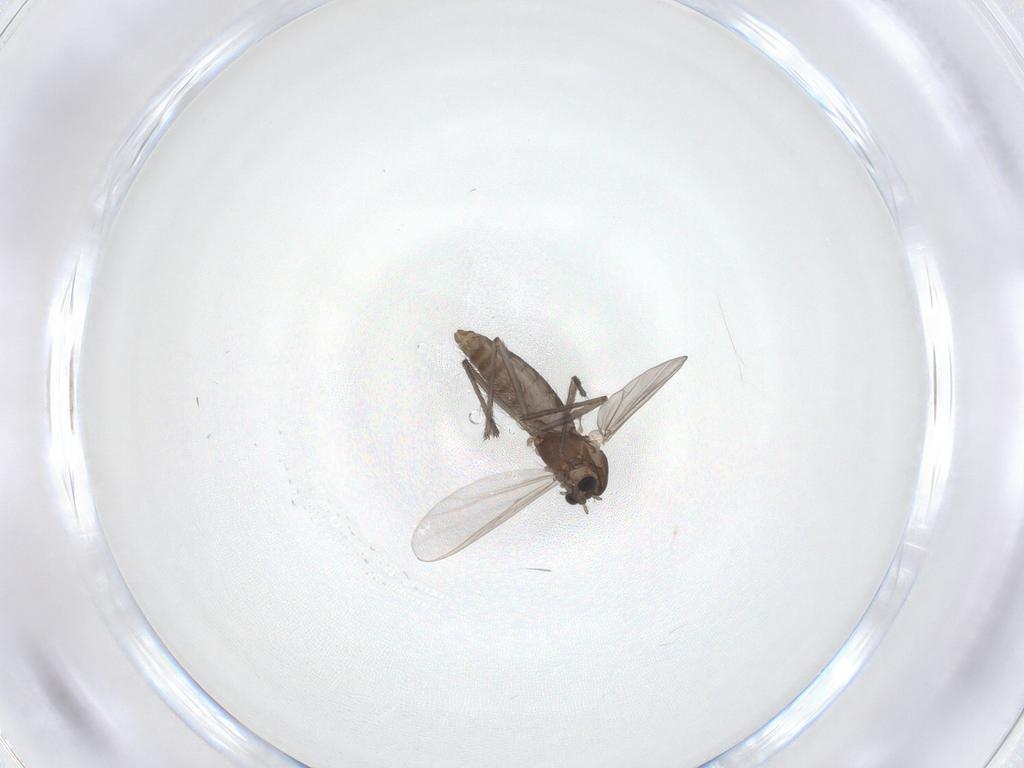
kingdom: Animalia
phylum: Arthropoda
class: Insecta
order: Diptera
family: Chironomidae
